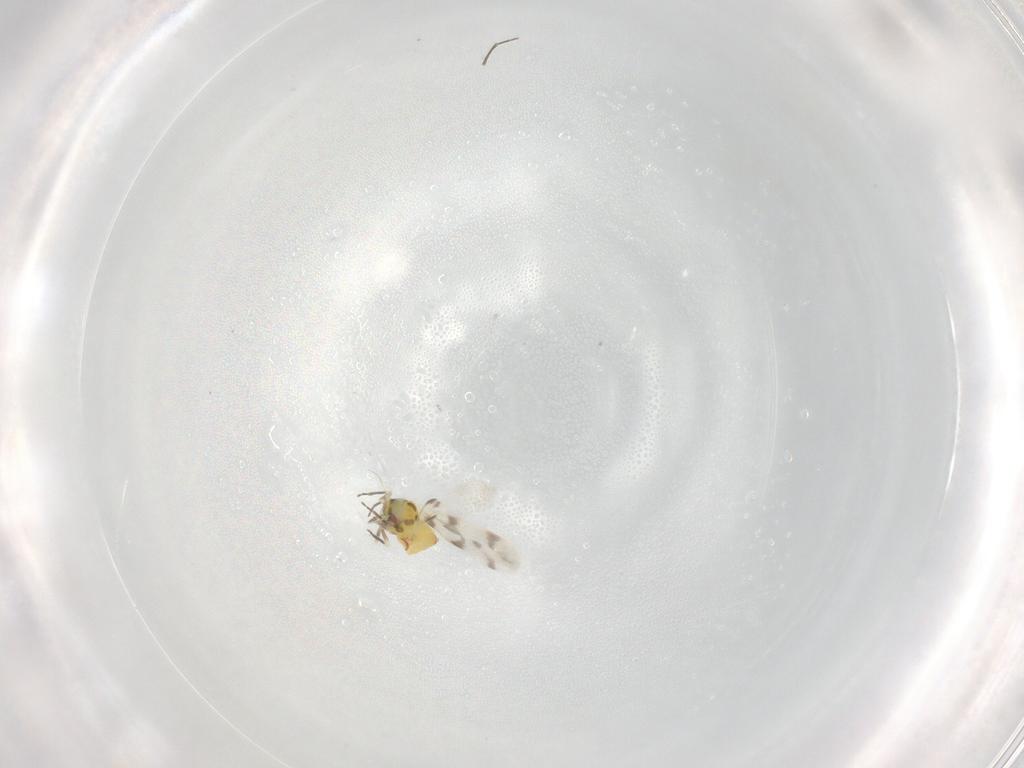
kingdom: Animalia
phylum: Arthropoda
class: Insecta
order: Hemiptera
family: Aleyrodidae
